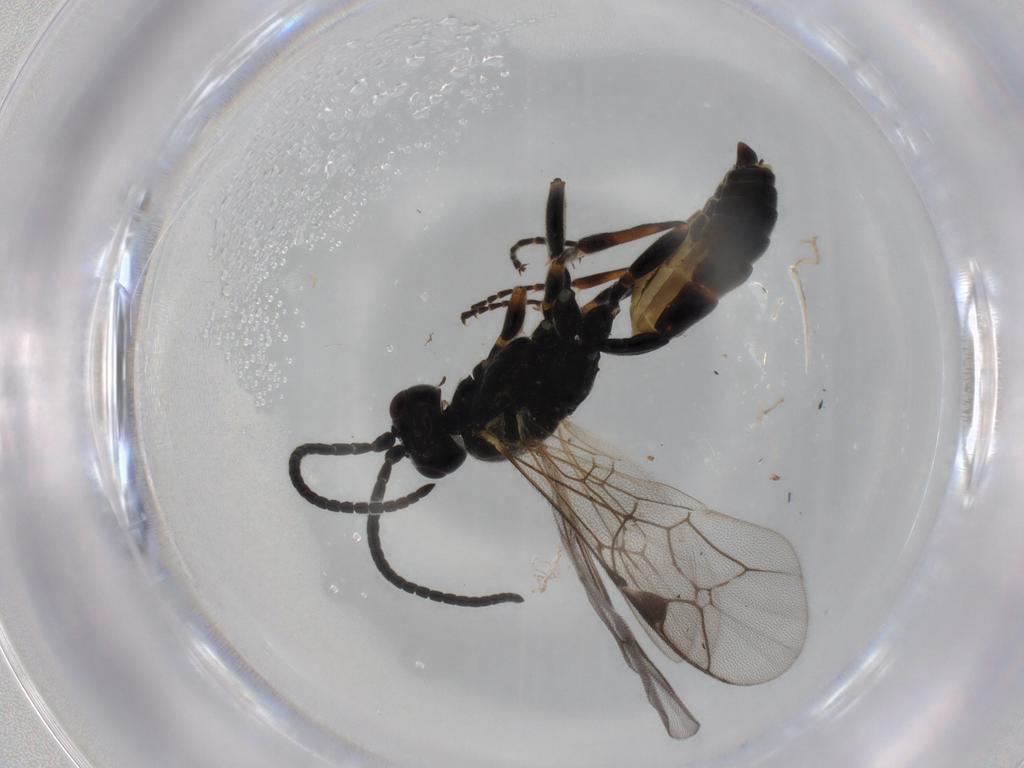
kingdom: Animalia
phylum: Arthropoda
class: Insecta
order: Hymenoptera
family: Ichneumonidae
